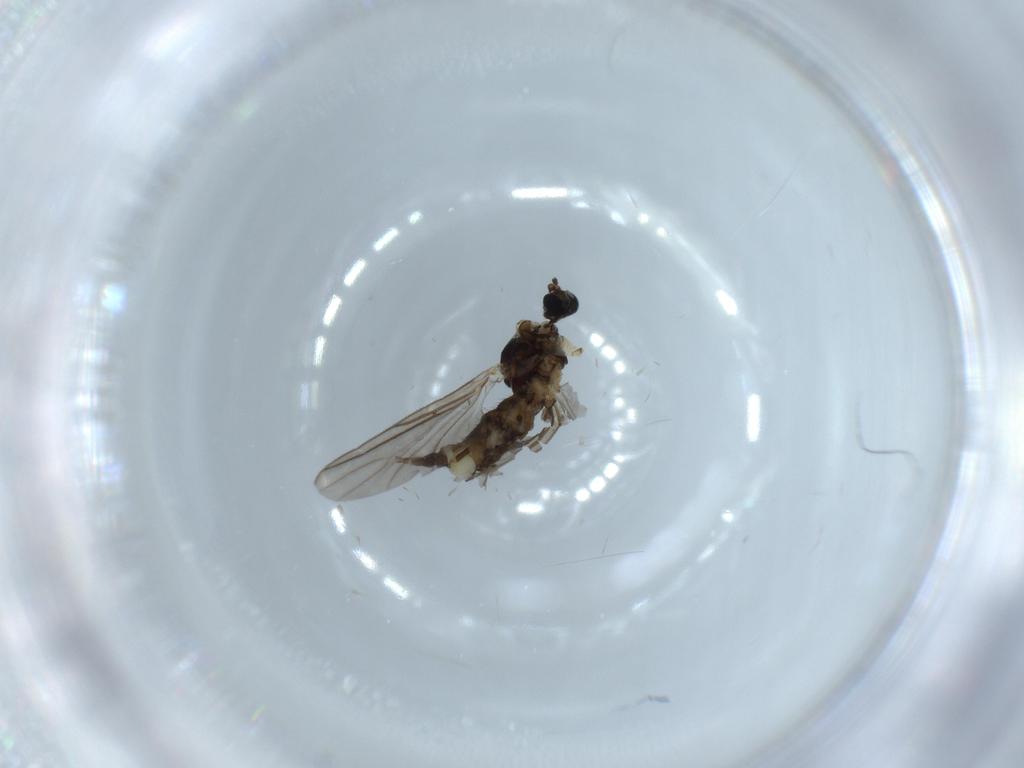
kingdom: Animalia
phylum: Arthropoda
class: Insecta
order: Diptera
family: Sciaridae
